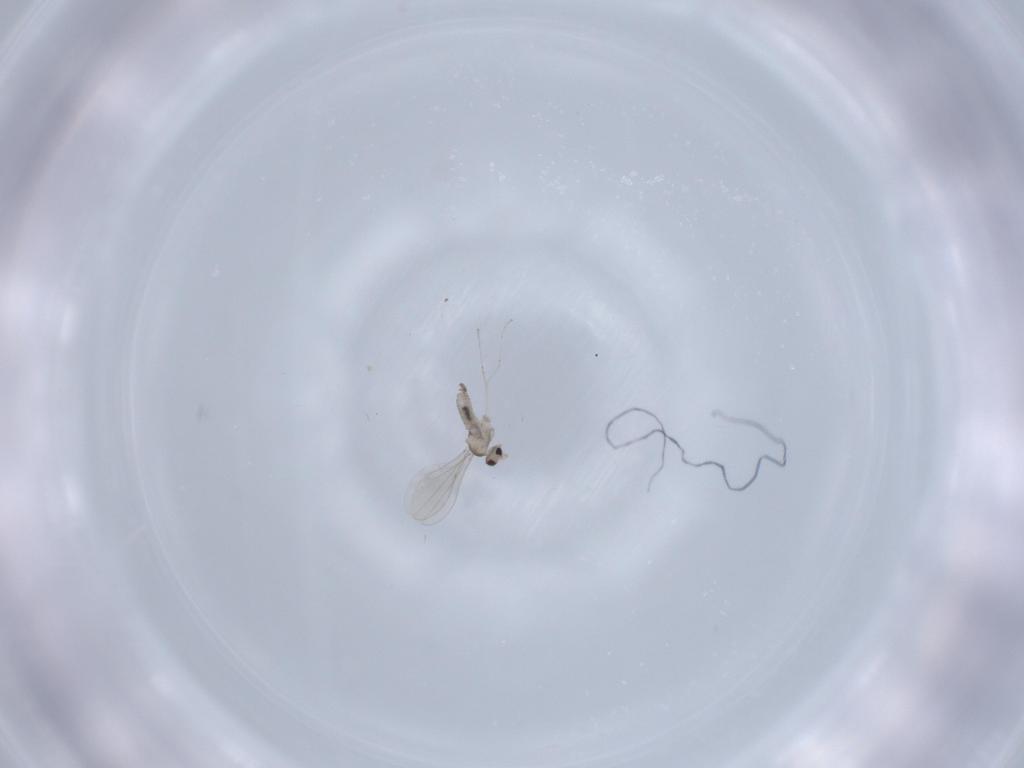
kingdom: Animalia
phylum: Arthropoda
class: Insecta
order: Diptera
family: Cecidomyiidae
